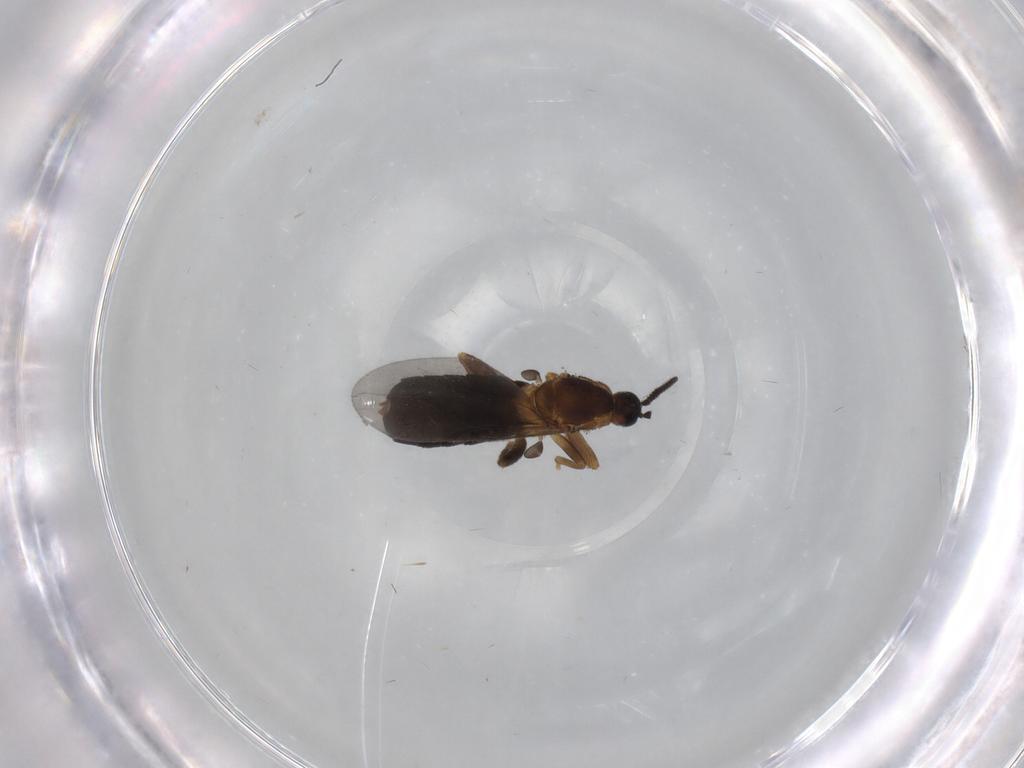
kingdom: Animalia
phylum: Arthropoda
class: Insecta
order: Diptera
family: Scatopsidae
